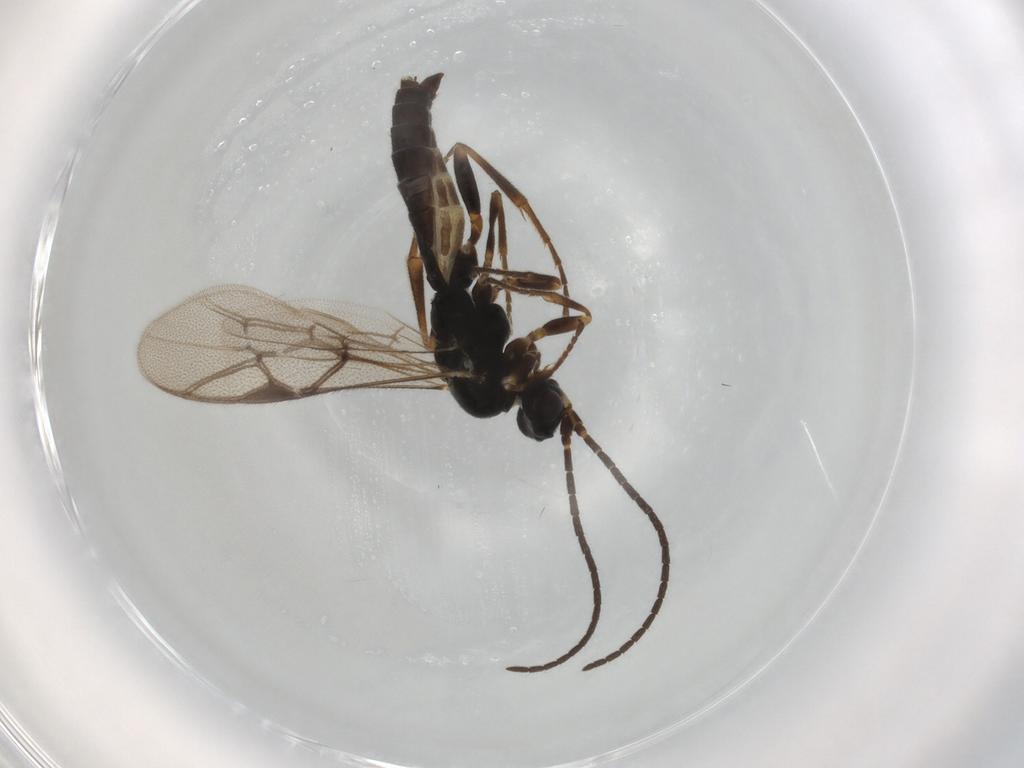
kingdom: Animalia
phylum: Arthropoda
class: Insecta
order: Hymenoptera
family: Ichneumonidae
